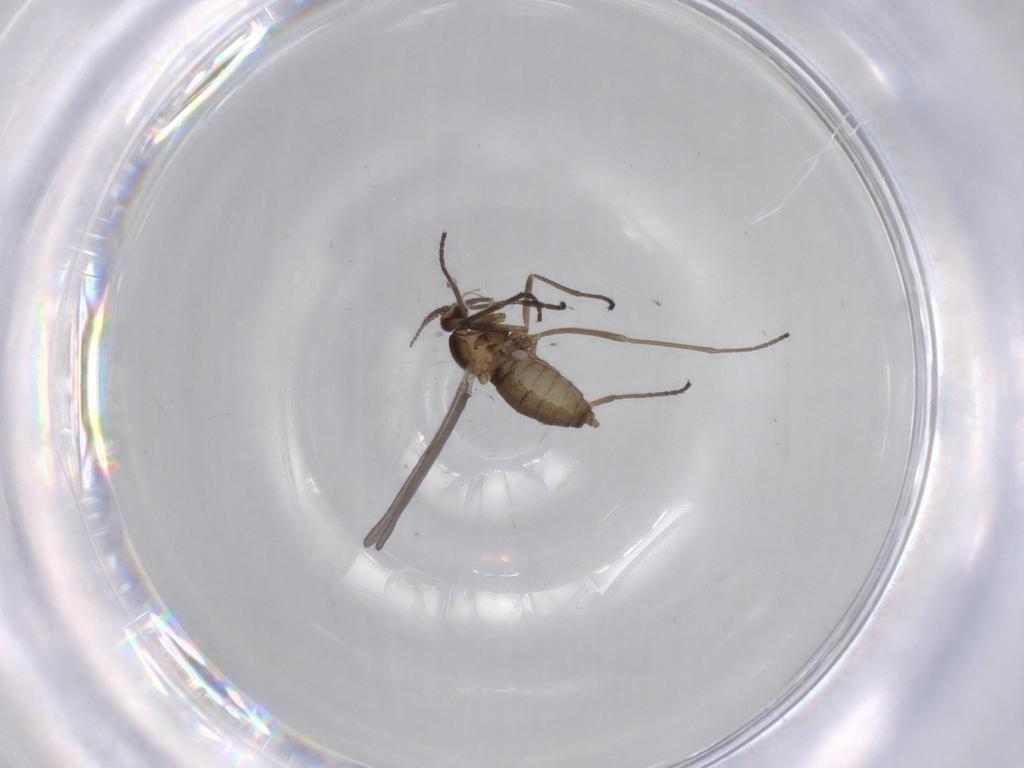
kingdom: Animalia
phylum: Arthropoda
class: Insecta
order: Diptera
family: Cecidomyiidae
